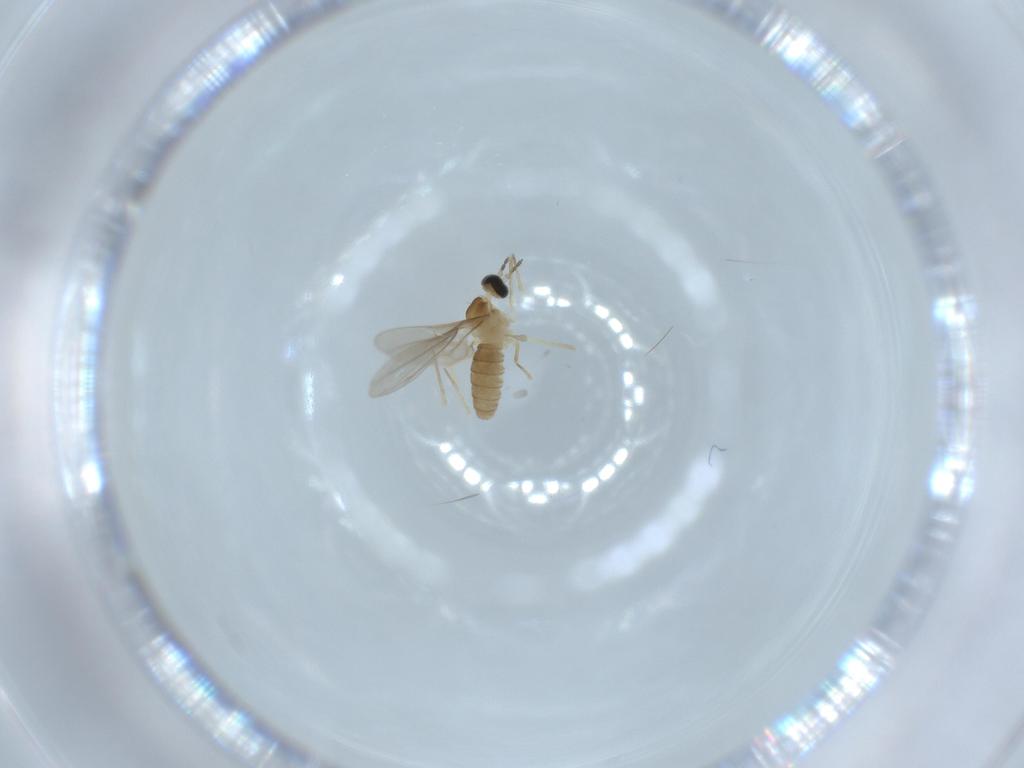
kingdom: Animalia
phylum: Arthropoda
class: Insecta
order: Diptera
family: Cecidomyiidae
